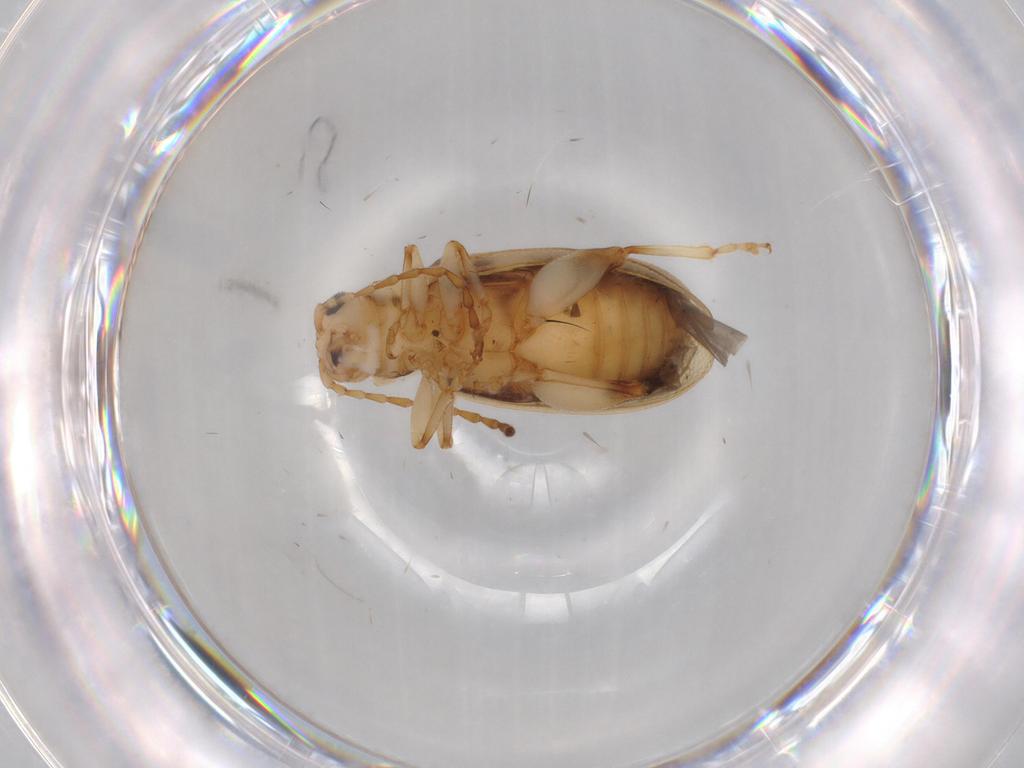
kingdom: Animalia
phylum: Arthropoda
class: Insecta
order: Coleoptera
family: Chrysomelidae
